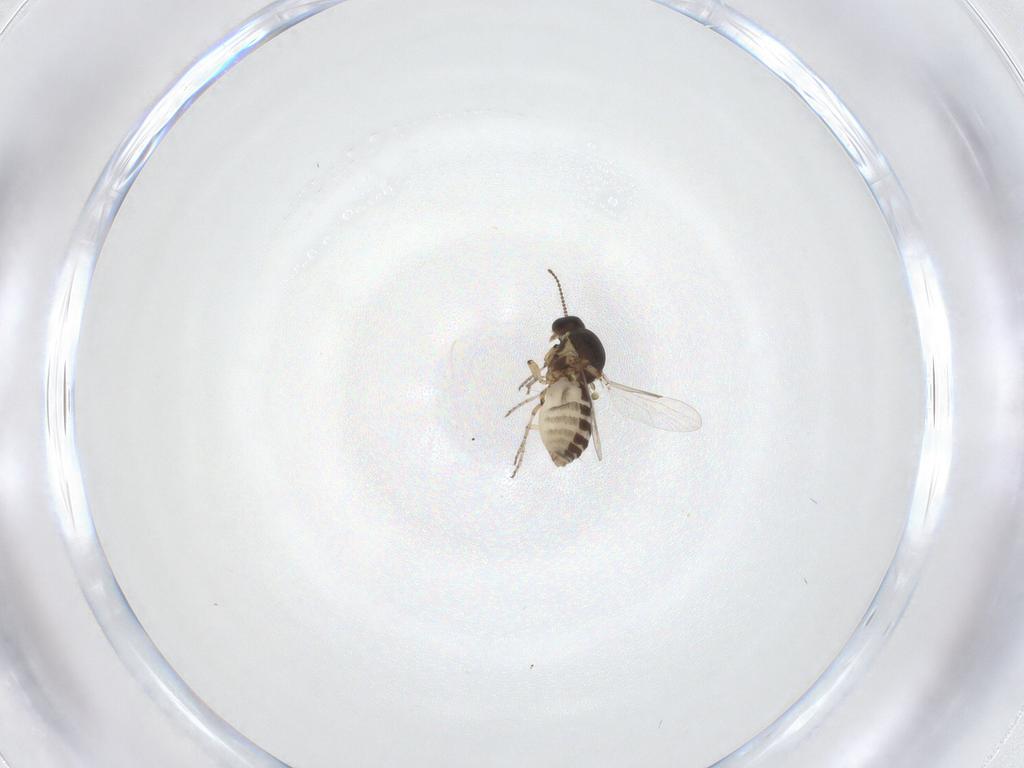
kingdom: Animalia
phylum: Arthropoda
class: Insecta
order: Diptera
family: Ceratopogonidae
